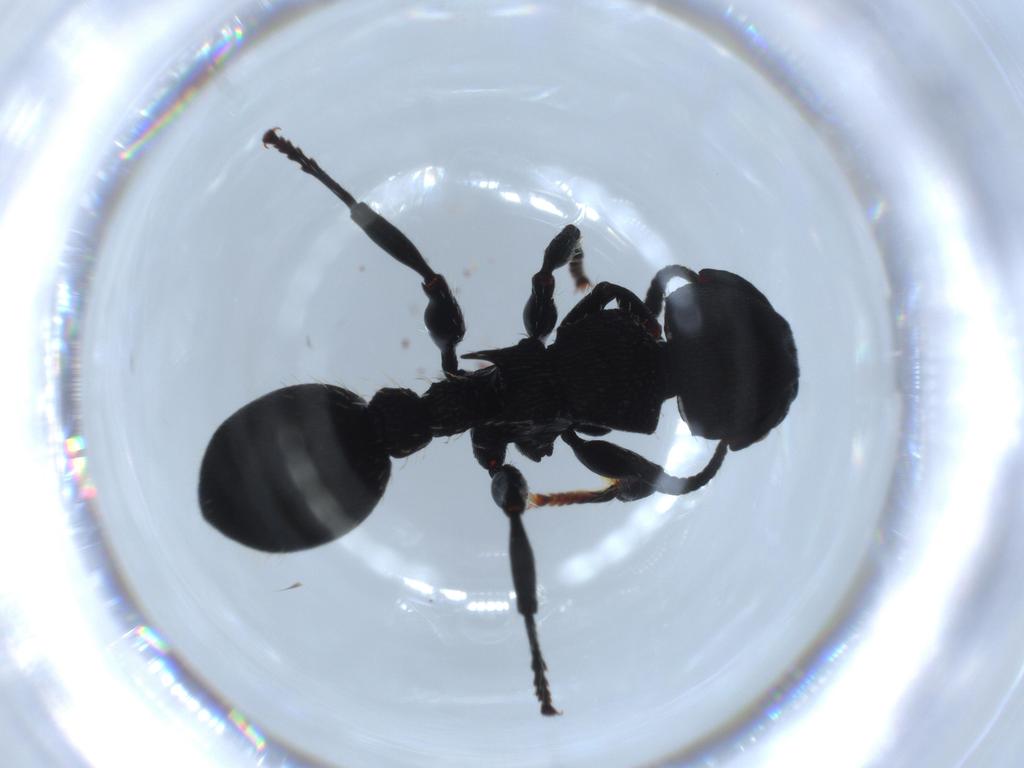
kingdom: Animalia
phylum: Arthropoda
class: Insecta
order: Hymenoptera
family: Formicidae
